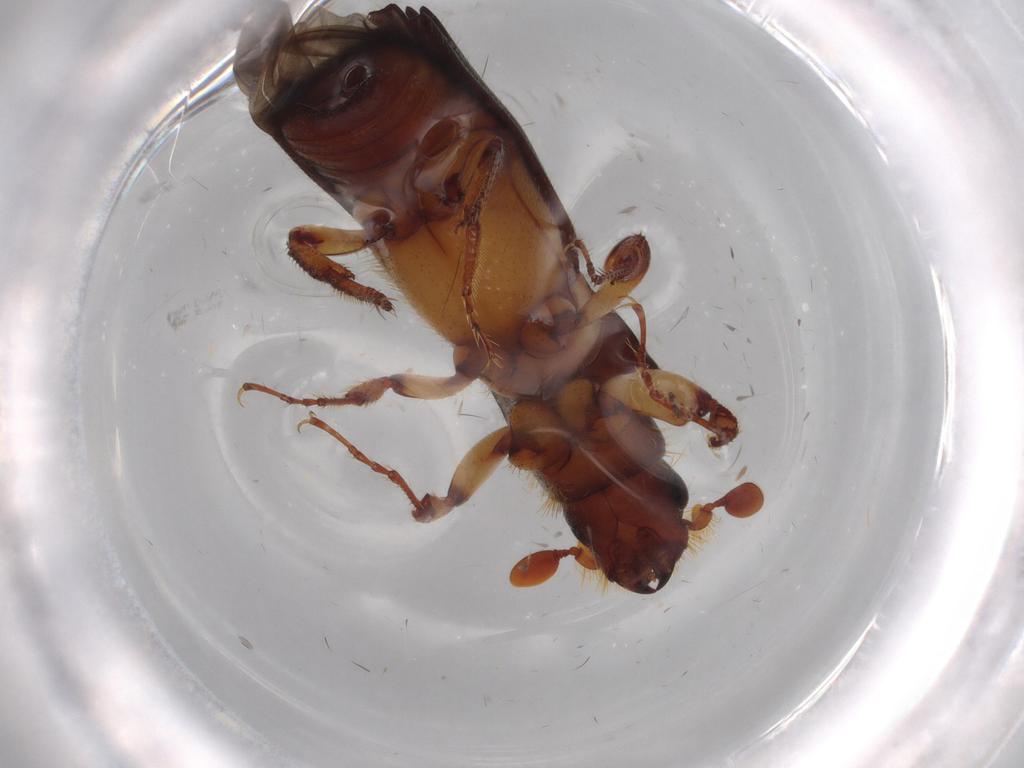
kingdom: Animalia
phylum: Arthropoda
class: Insecta
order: Coleoptera
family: Curculionidae
